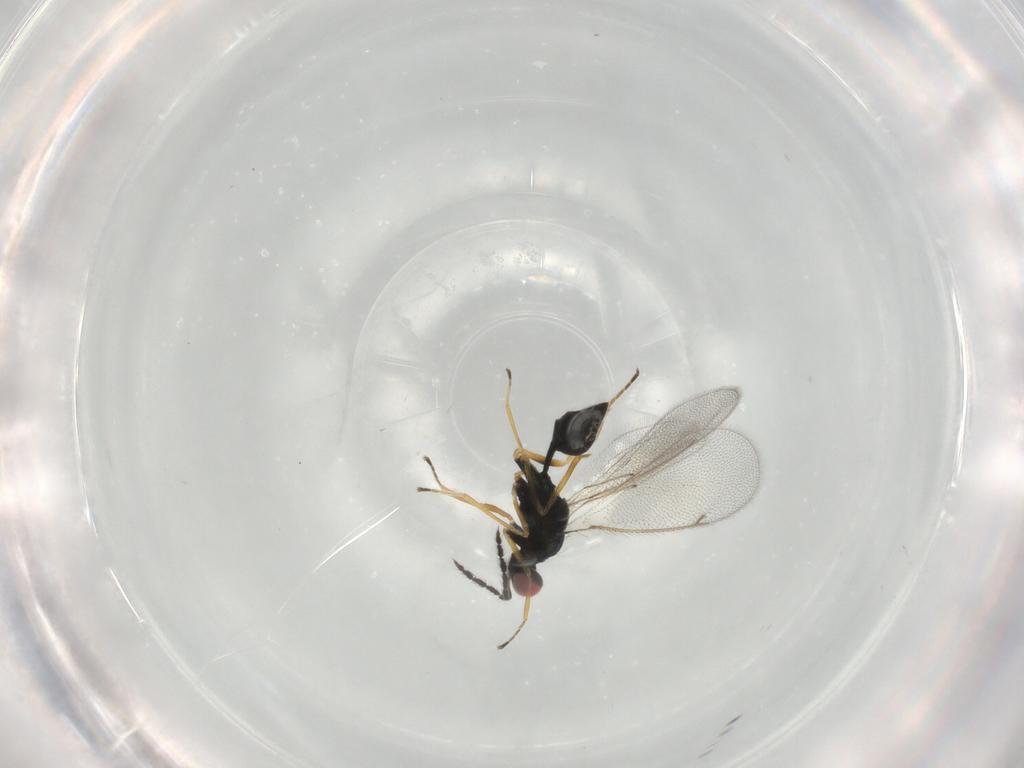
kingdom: Animalia
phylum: Arthropoda
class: Insecta
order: Hymenoptera
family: Eulophidae
